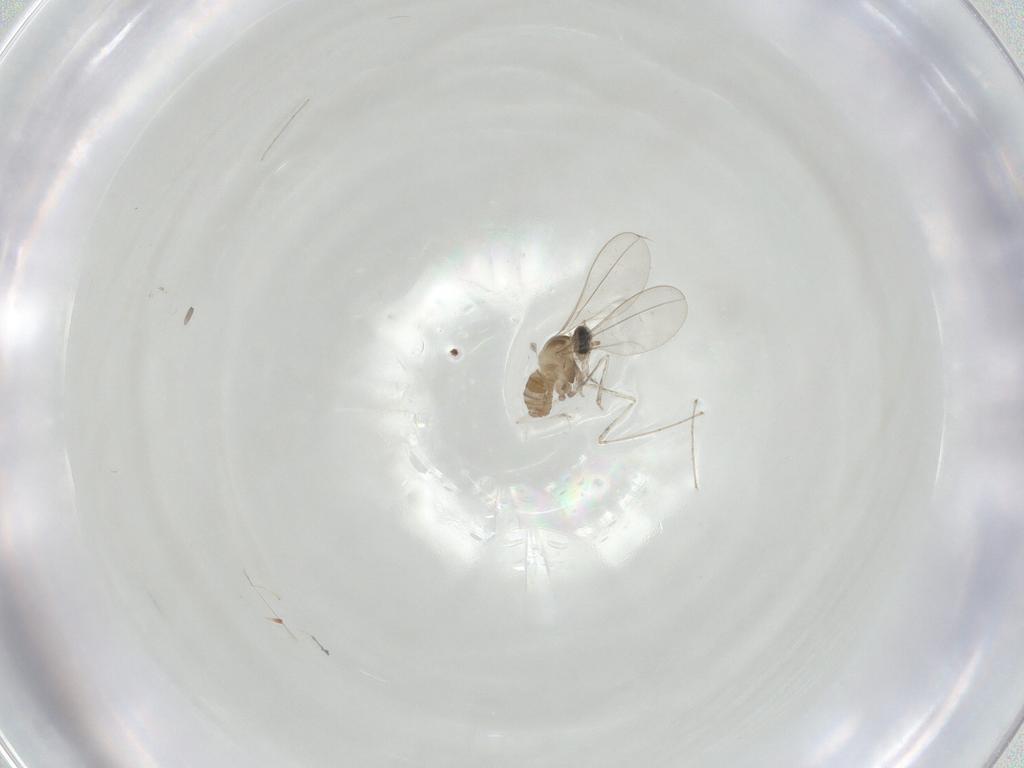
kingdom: Animalia
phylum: Arthropoda
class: Insecta
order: Diptera
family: Cecidomyiidae
